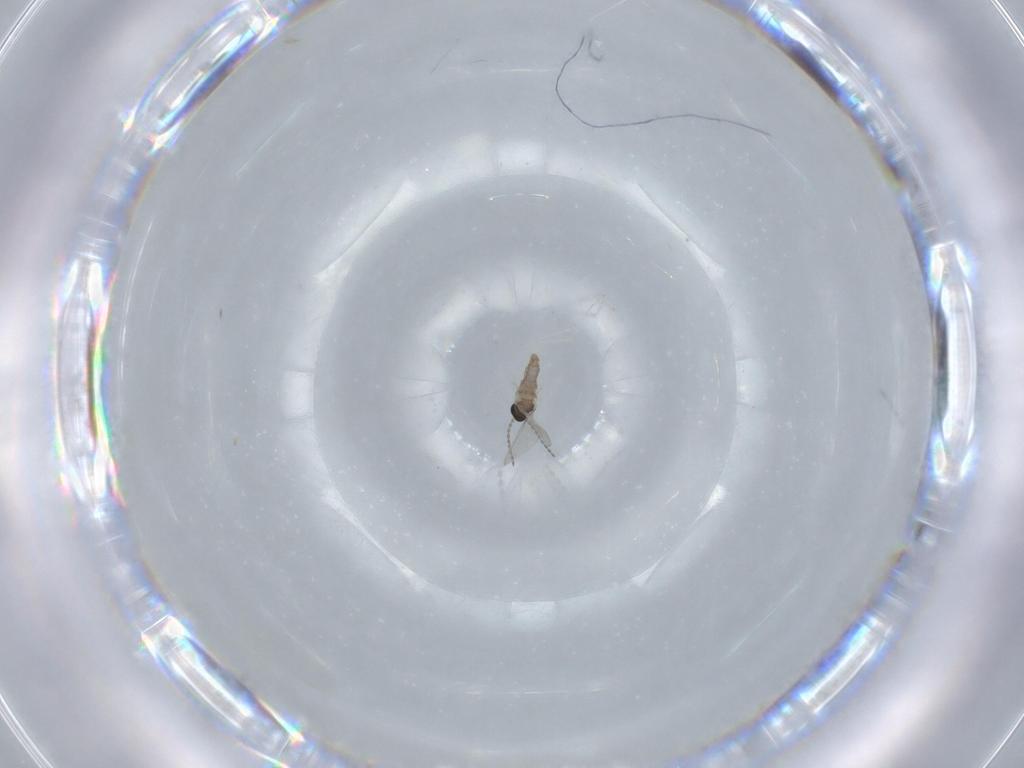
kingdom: Animalia
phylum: Arthropoda
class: Insecta
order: Diptera
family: Cecidomyiidae
